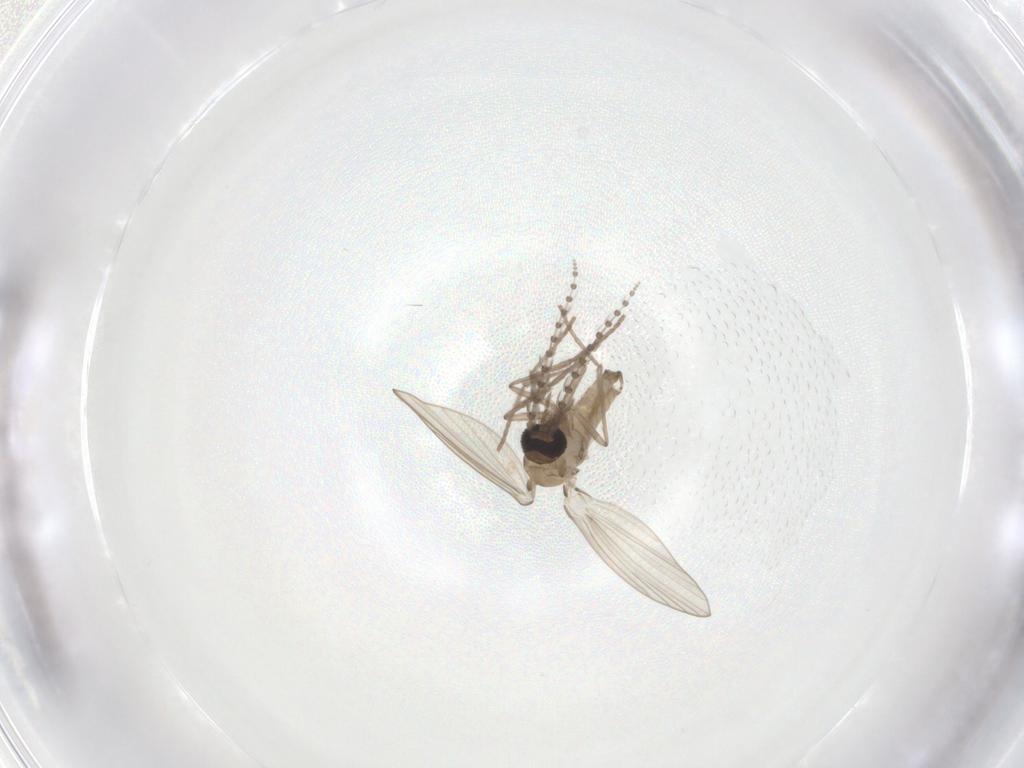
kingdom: Animalia
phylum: Arthropoda
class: Insecta
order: Diptera
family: Psychodidae
